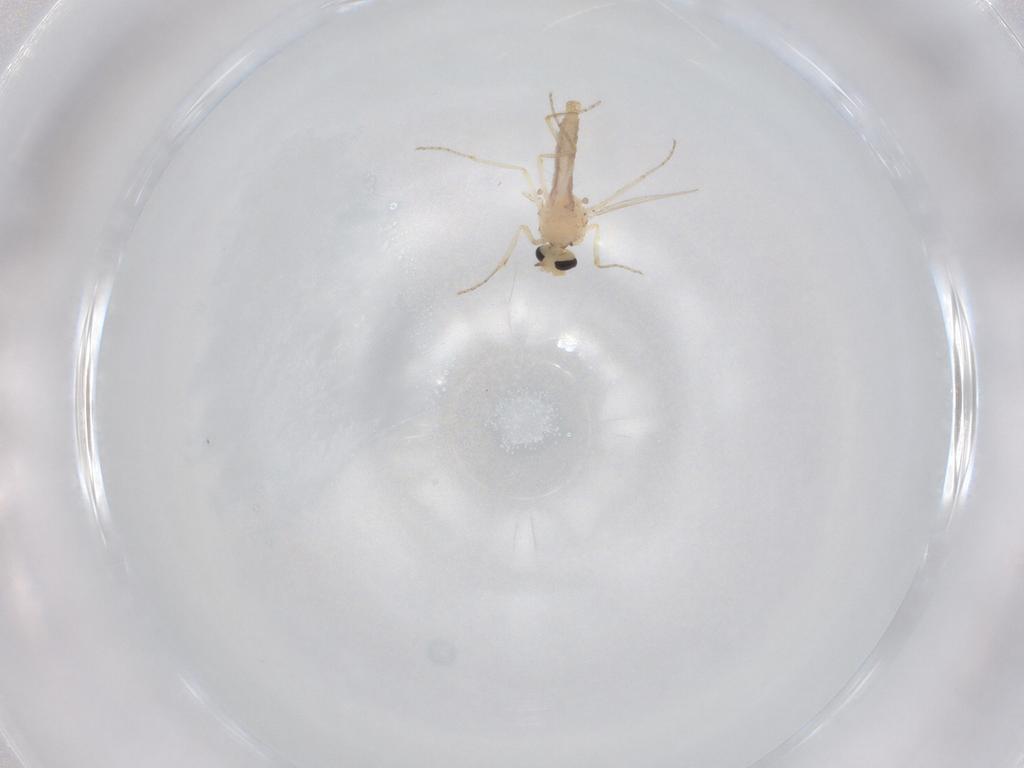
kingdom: Animalia
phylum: Arthropoda
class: Insecta
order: Diptera
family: Ceratopogonidae
